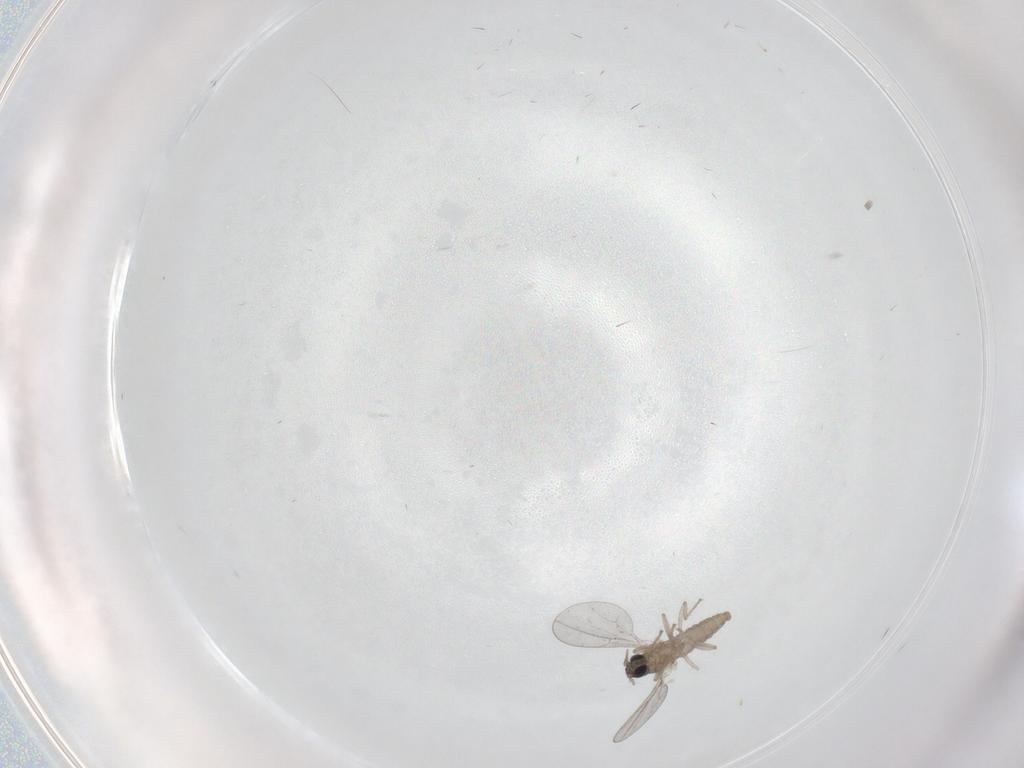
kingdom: Animalia
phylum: Arthropoda
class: Insecta
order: Diptera
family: Cecidomyiidae
